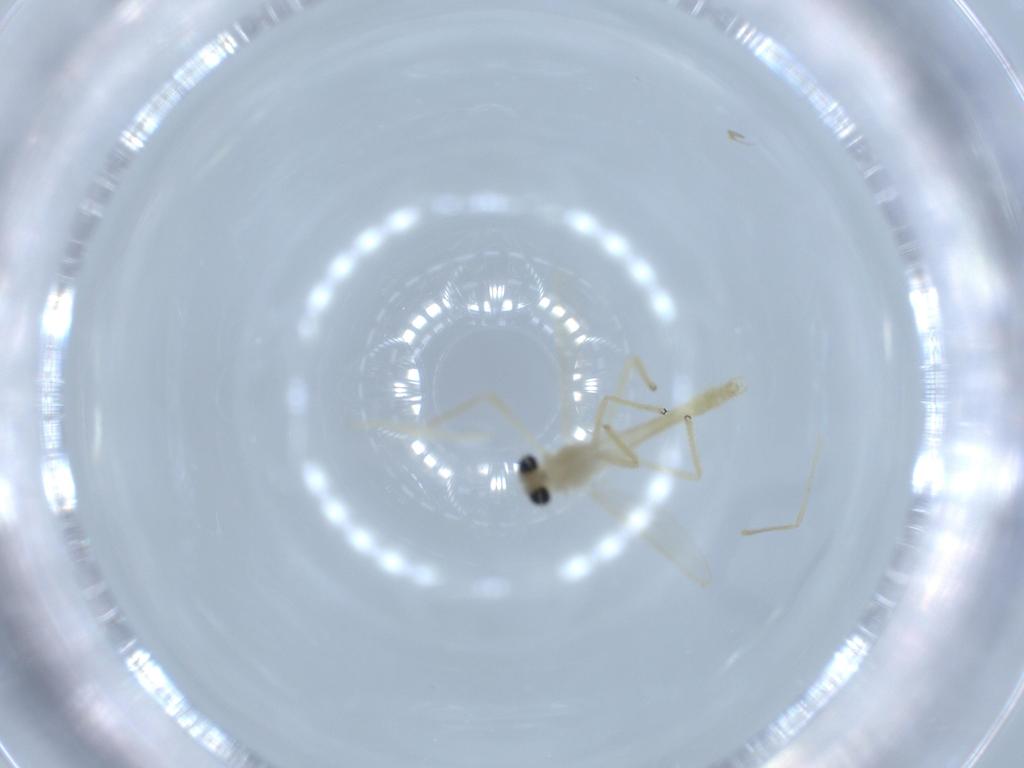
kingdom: Animalia
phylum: Arthropoda
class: Insecta
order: Diptera
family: Chironomidae
